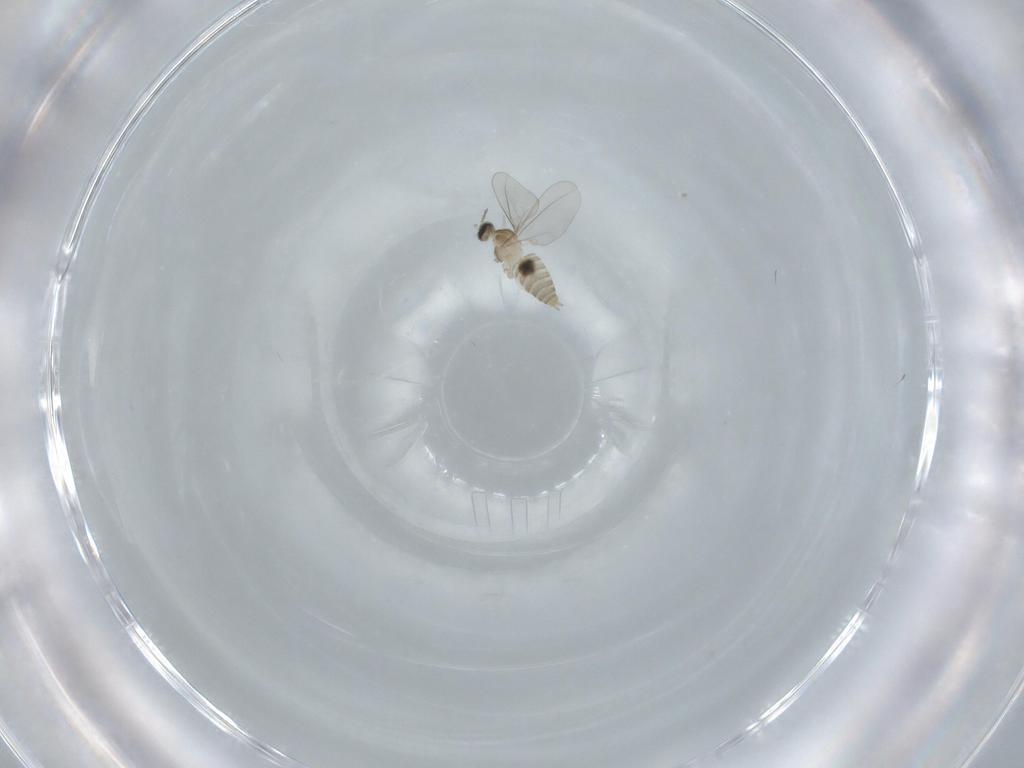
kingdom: Animalia
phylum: Arthropoda
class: Insecta
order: Diptera
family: Cecidomyiidae
